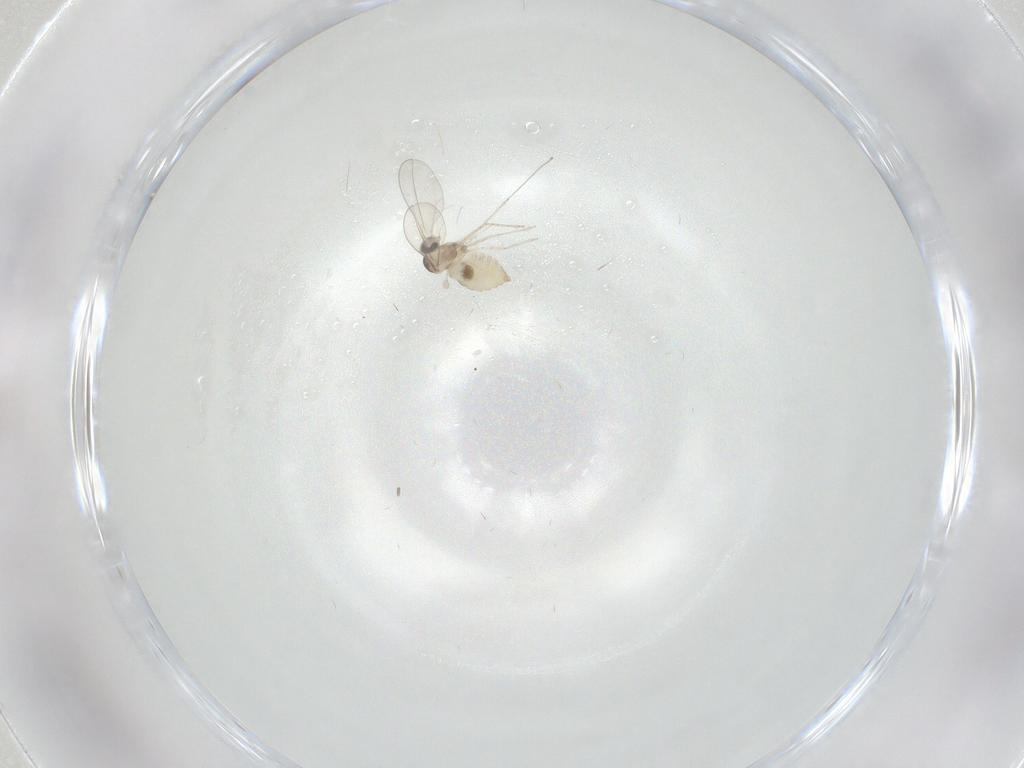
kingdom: Animalia
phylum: Arthropoda
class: Insecta
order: Diptera
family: Cecidomyiidae
